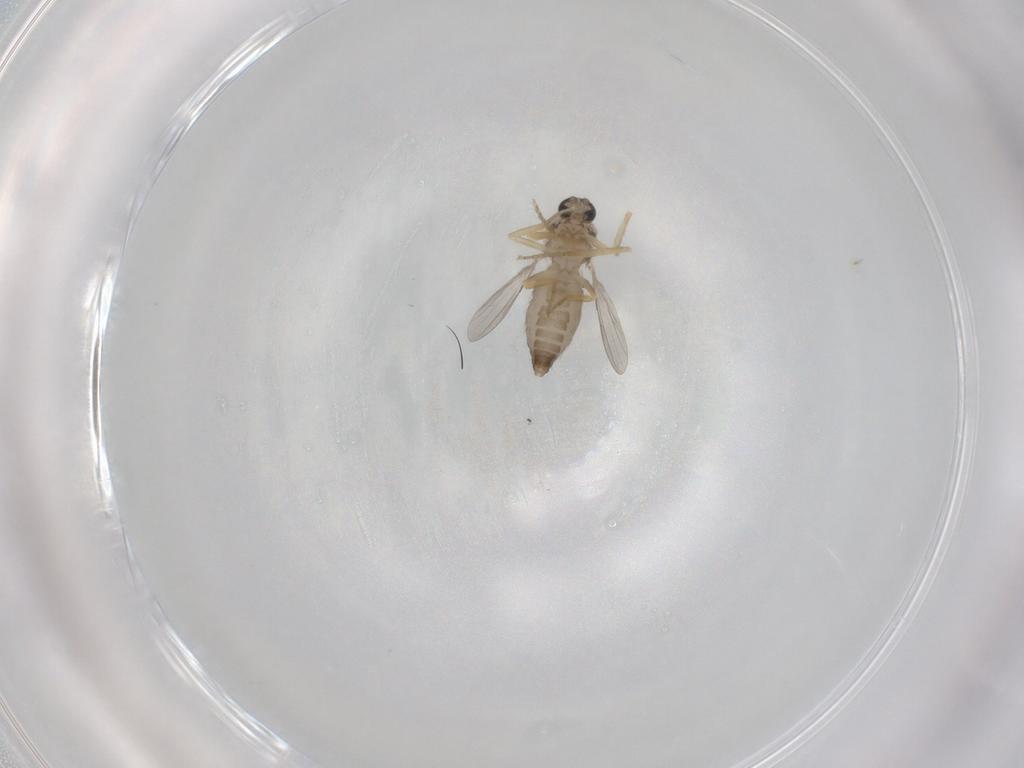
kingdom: Animalia
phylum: Arthropoda
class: Insecta
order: Diptera
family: Ceratopogonidae
